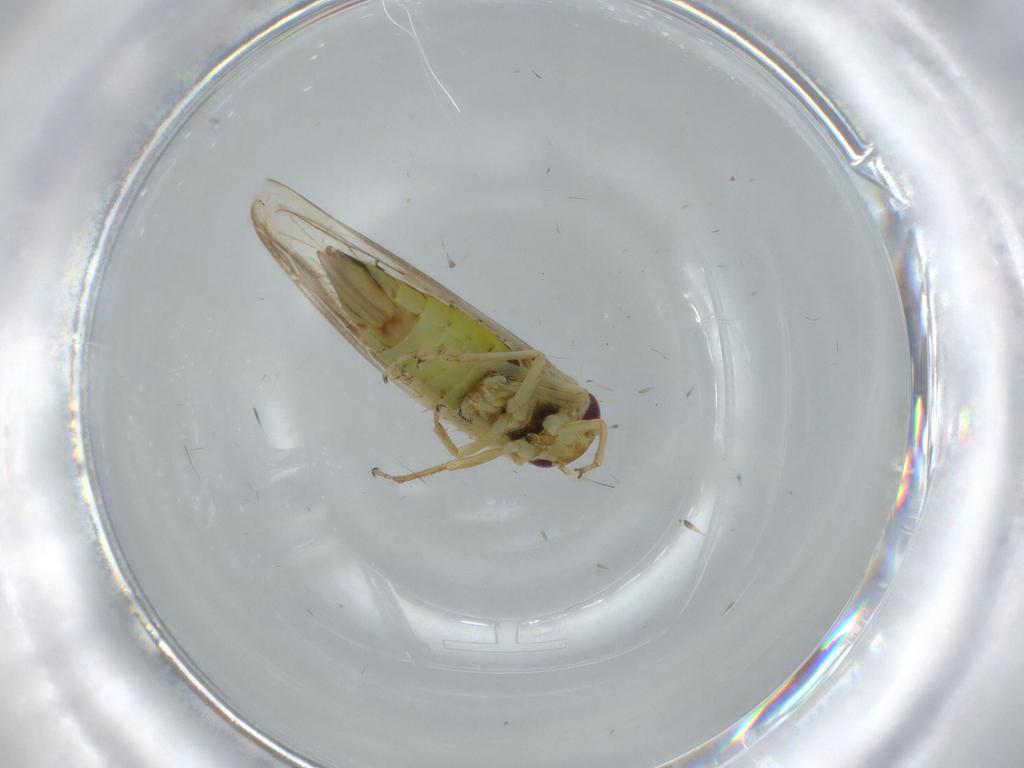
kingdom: Animalia
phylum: Arthropoda
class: Insecta
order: Hemiptera
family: Cicadellidae
